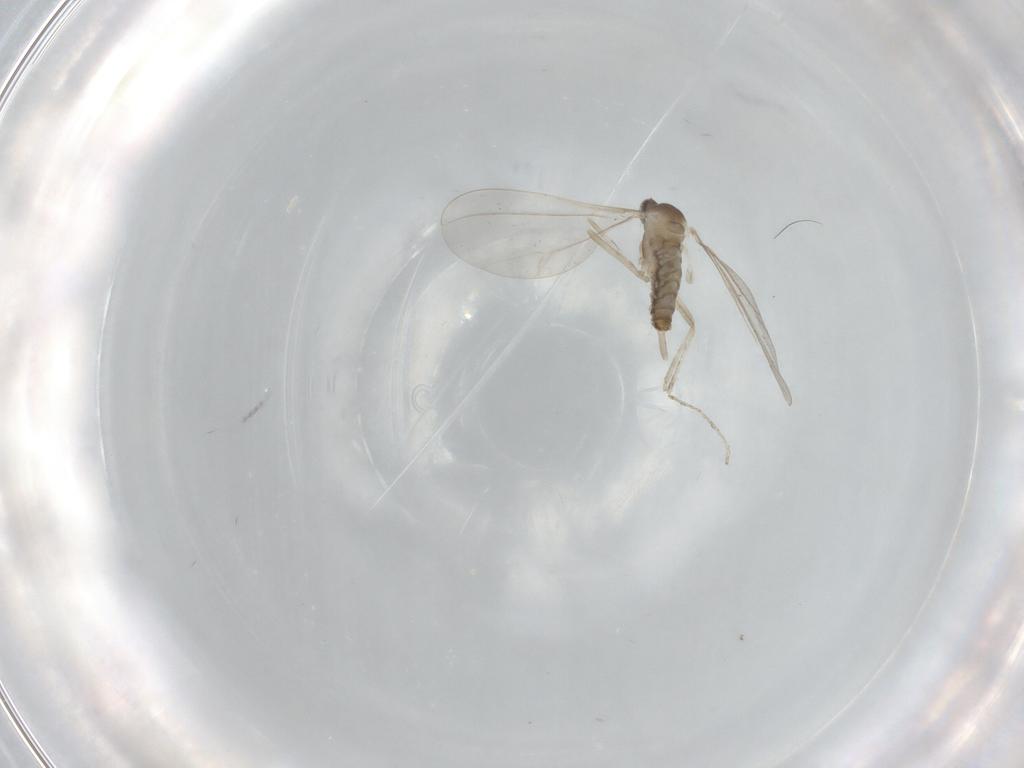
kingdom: Animalia
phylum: Arthropoda
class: Insecta
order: Diptera
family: Cecidomyiidae
